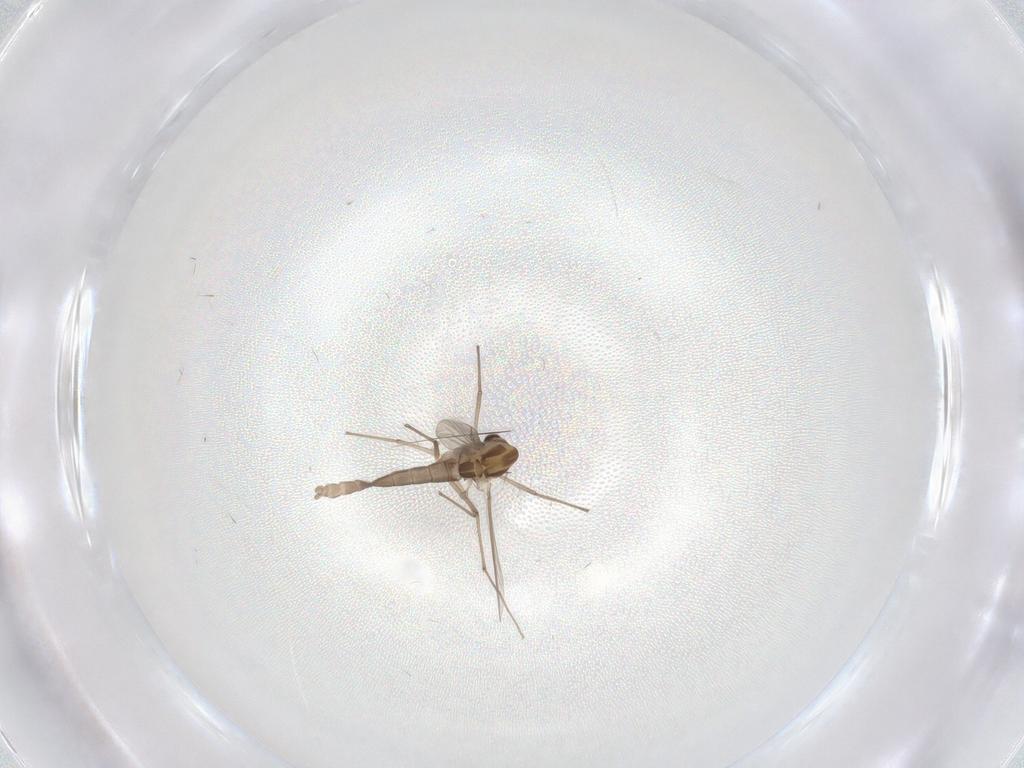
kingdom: Animalia
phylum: Arthropoda
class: Insecta
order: Diptera
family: Chironomidae
